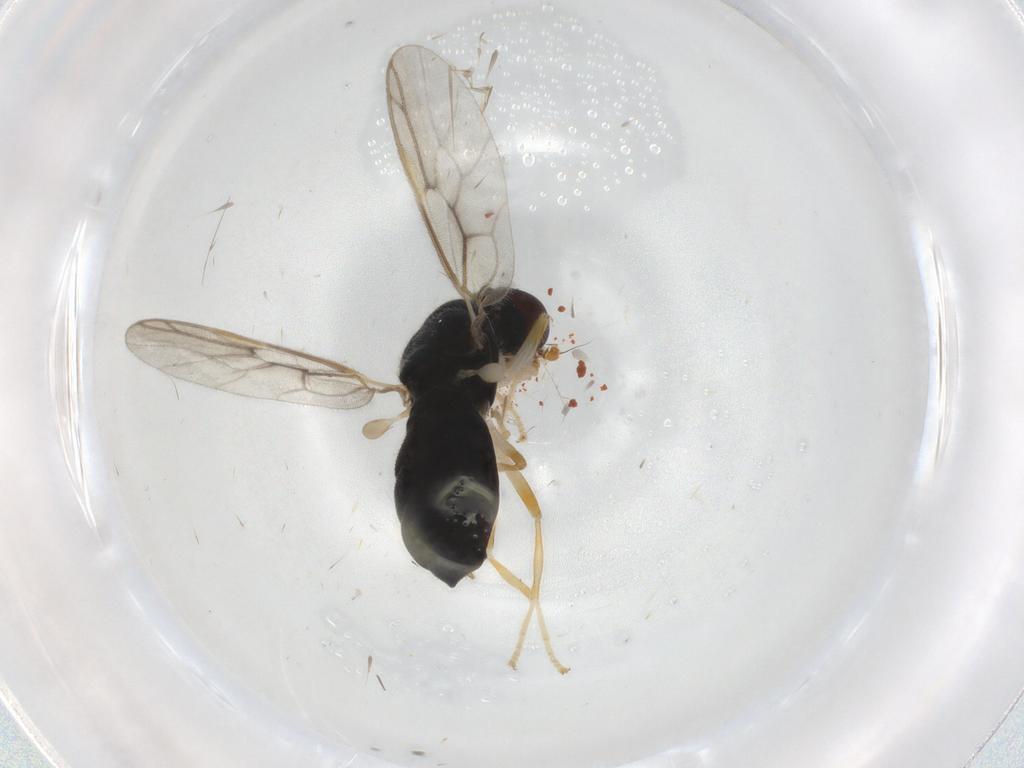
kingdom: Animalia
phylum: Arthropoda
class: Insecta
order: Diptera
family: Stratiomyidae
